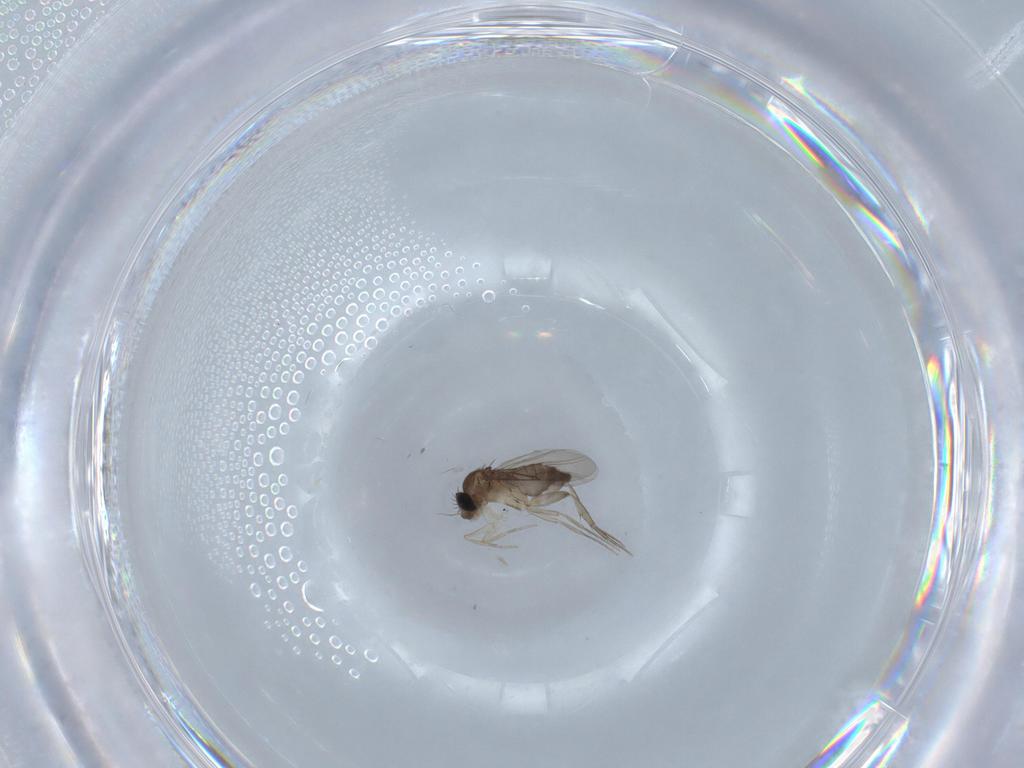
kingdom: Animalia
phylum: Arthropoda
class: Insecta
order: Diptera
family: Phoridae
